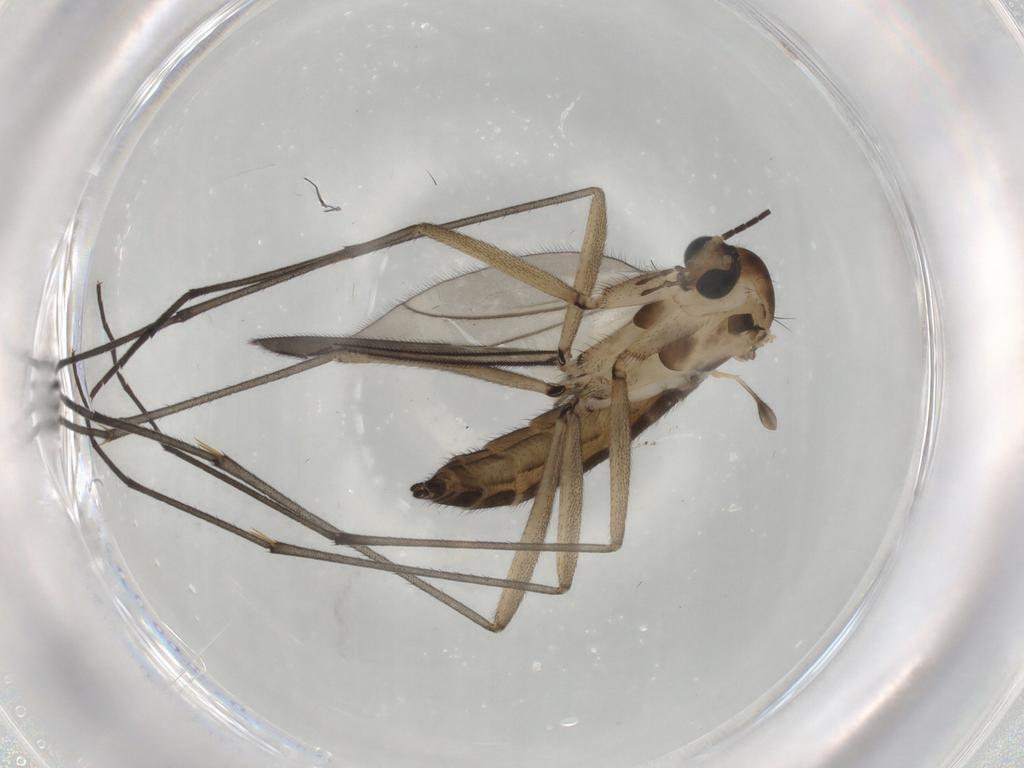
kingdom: Animalia
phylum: Arthropoda
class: Insecta
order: Diptera
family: Sciaridae
